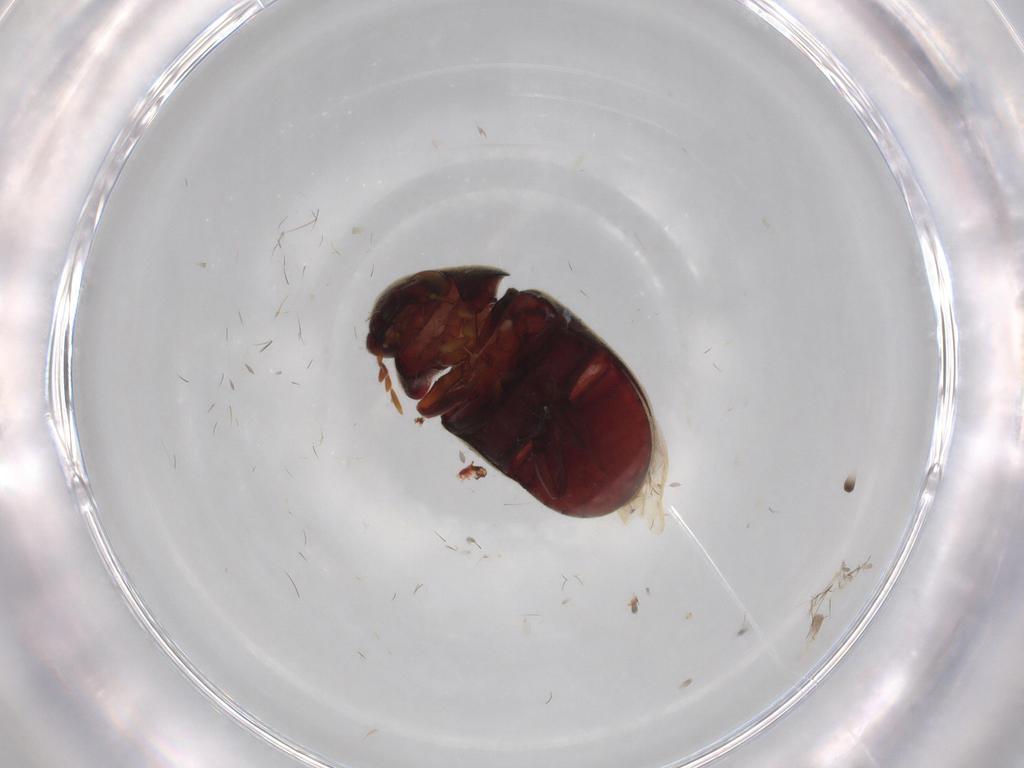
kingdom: Animalia
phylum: Arthropoda
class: Insecta
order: Coleoptera
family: Ptinidae
